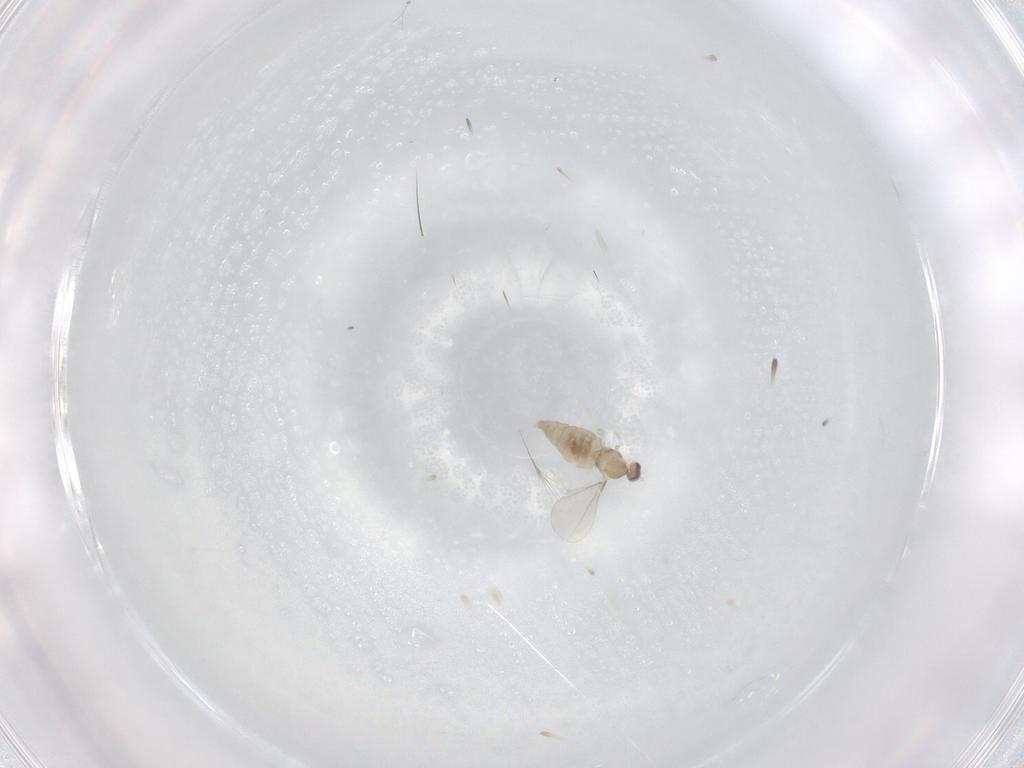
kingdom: Animalia
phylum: Arthropoda
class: Insecta
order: Diptera
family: Cecidomyiidae
